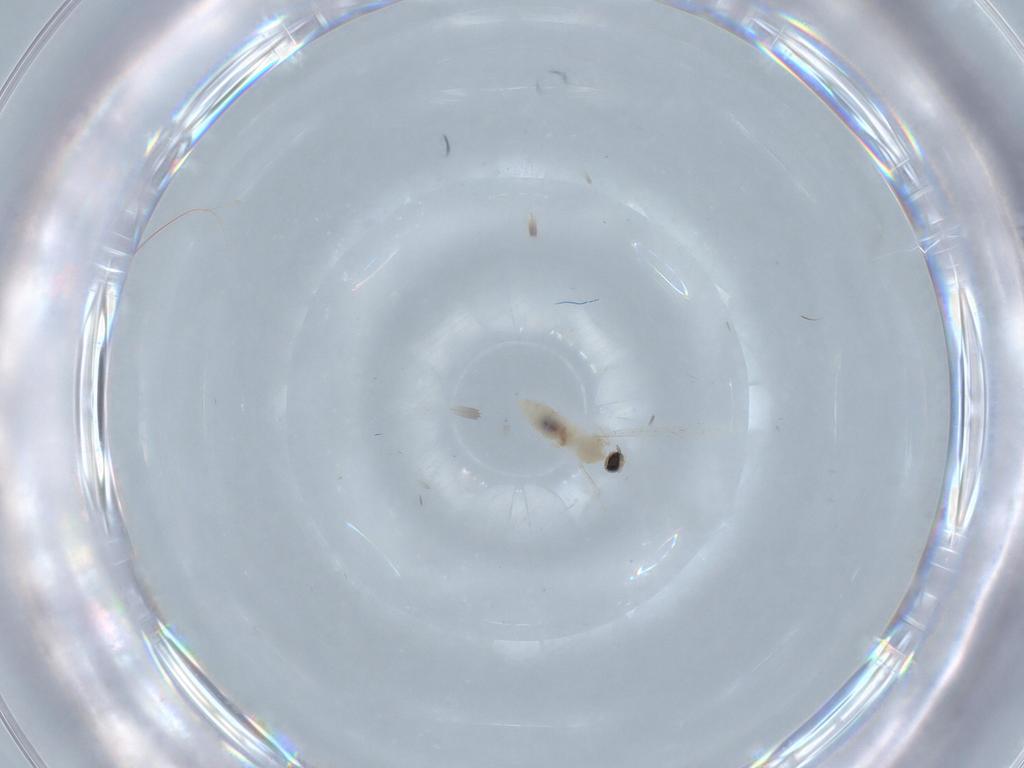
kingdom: Animalia
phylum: Arthropoda
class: Insecta
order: Diptera
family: Cecidomyiidae
